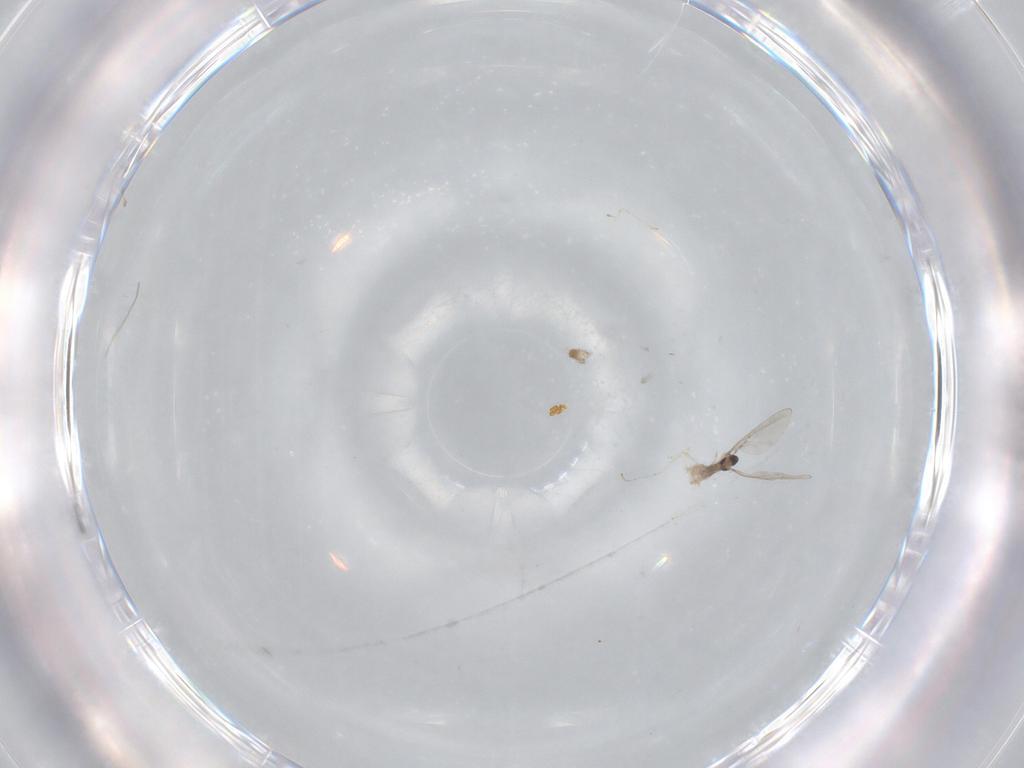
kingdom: Animalia
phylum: Arthropoda
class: Insecta
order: Diptera
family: Cecidomyiidae
